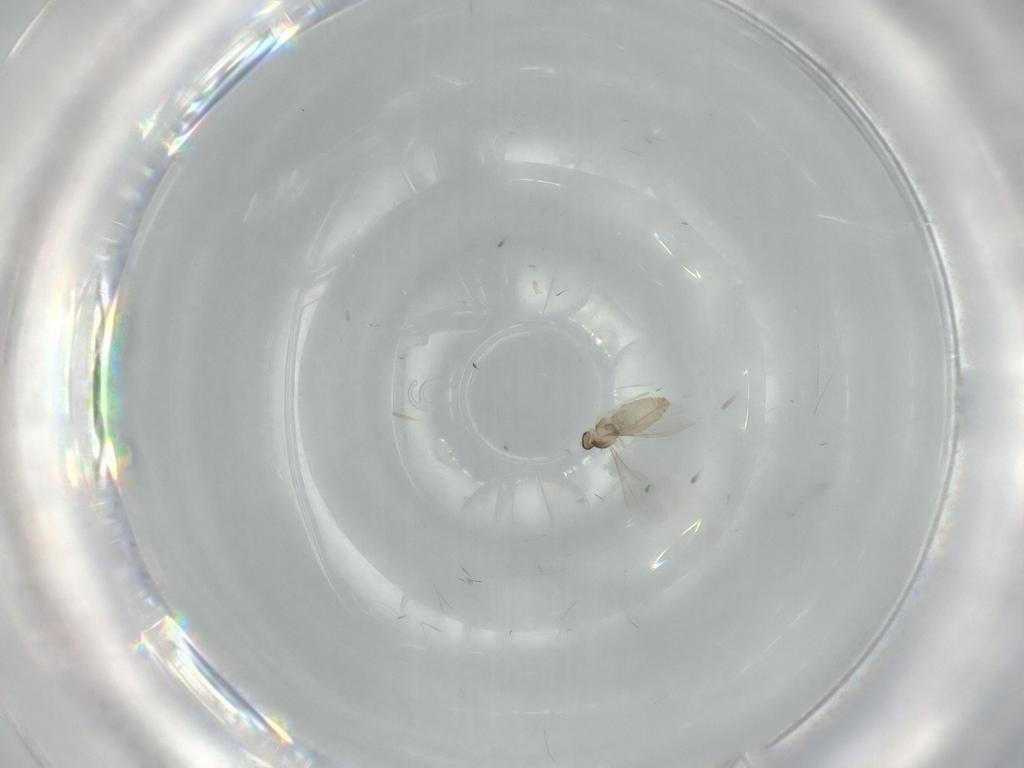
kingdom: Animalia
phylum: Arthropoda
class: Insecta
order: Diptera
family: Cecidomyiidae
